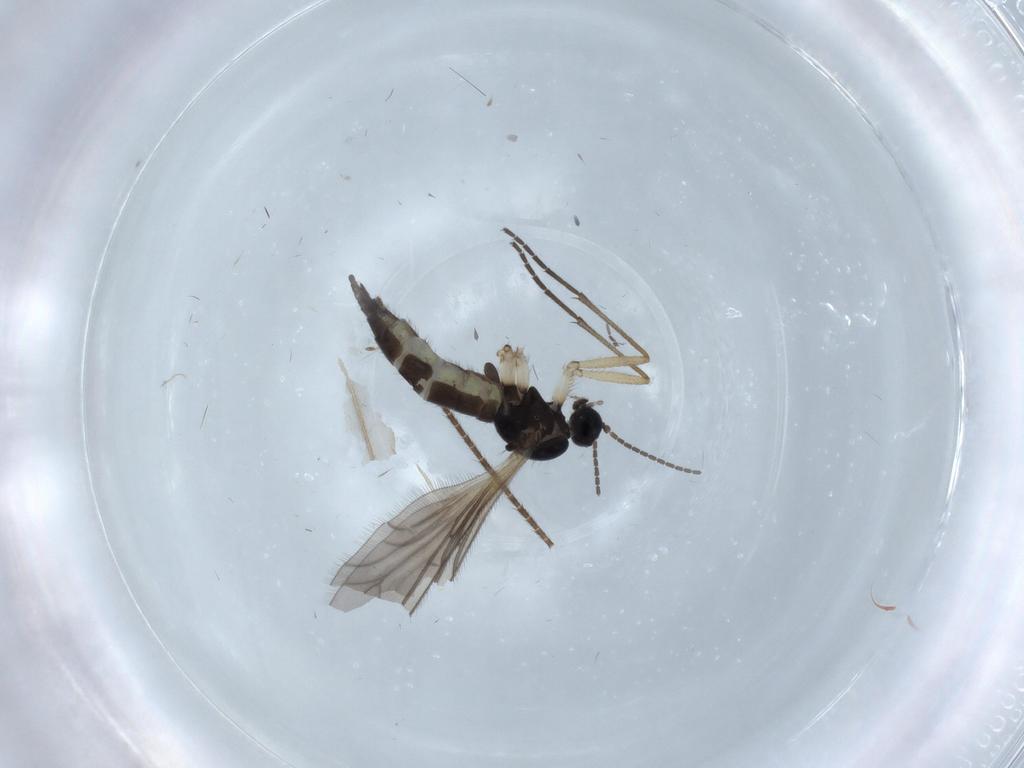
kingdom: Animalia
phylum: Arthropoda
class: Insecta
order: Diptera
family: Sciaridae
